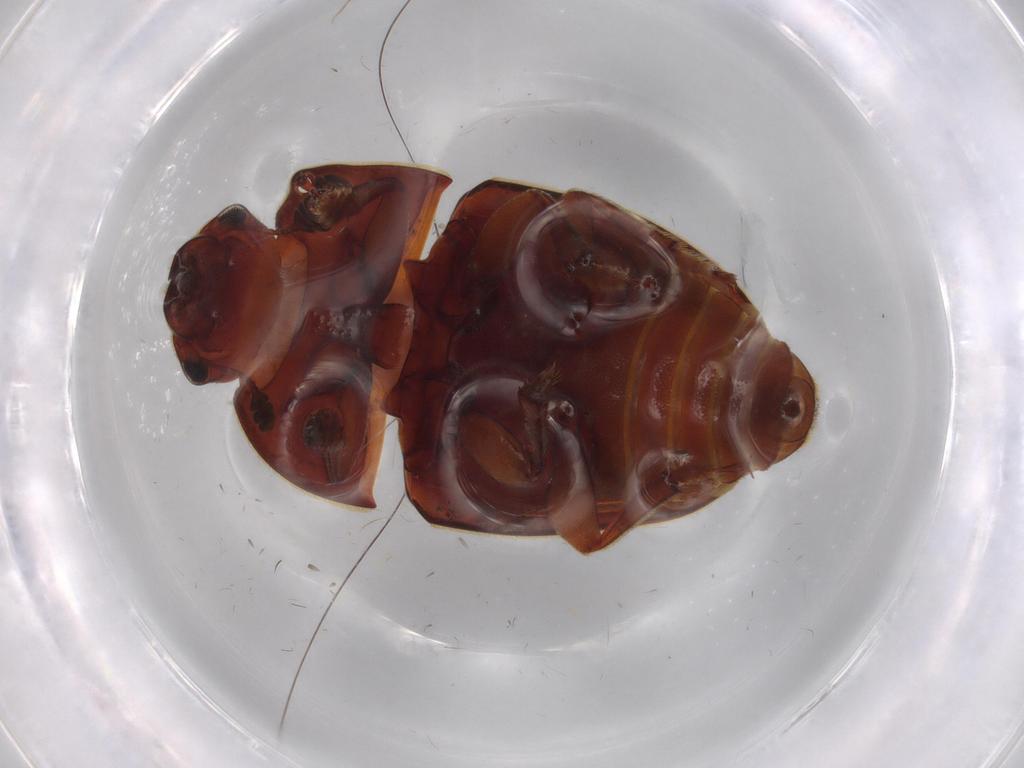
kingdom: Animalia
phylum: Arthropoda
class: Insecta
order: Coleoptera
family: Nitidulidae
